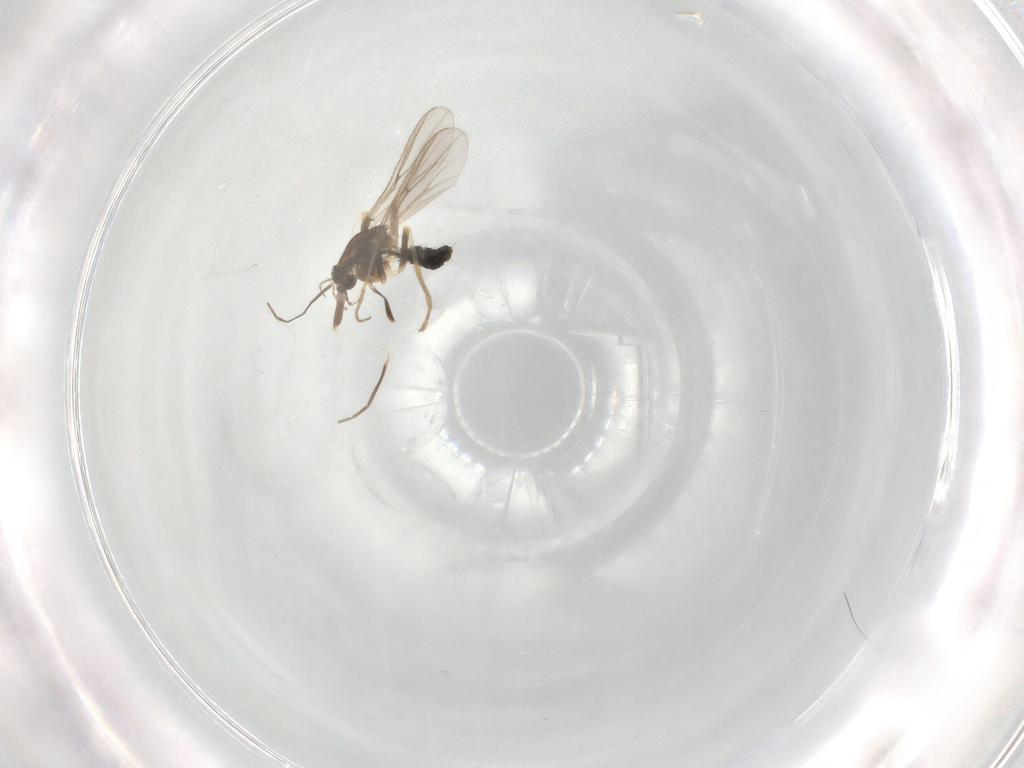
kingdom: Animalia
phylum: Arthropoda
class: Insecta
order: Diptera
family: Chironomidae
